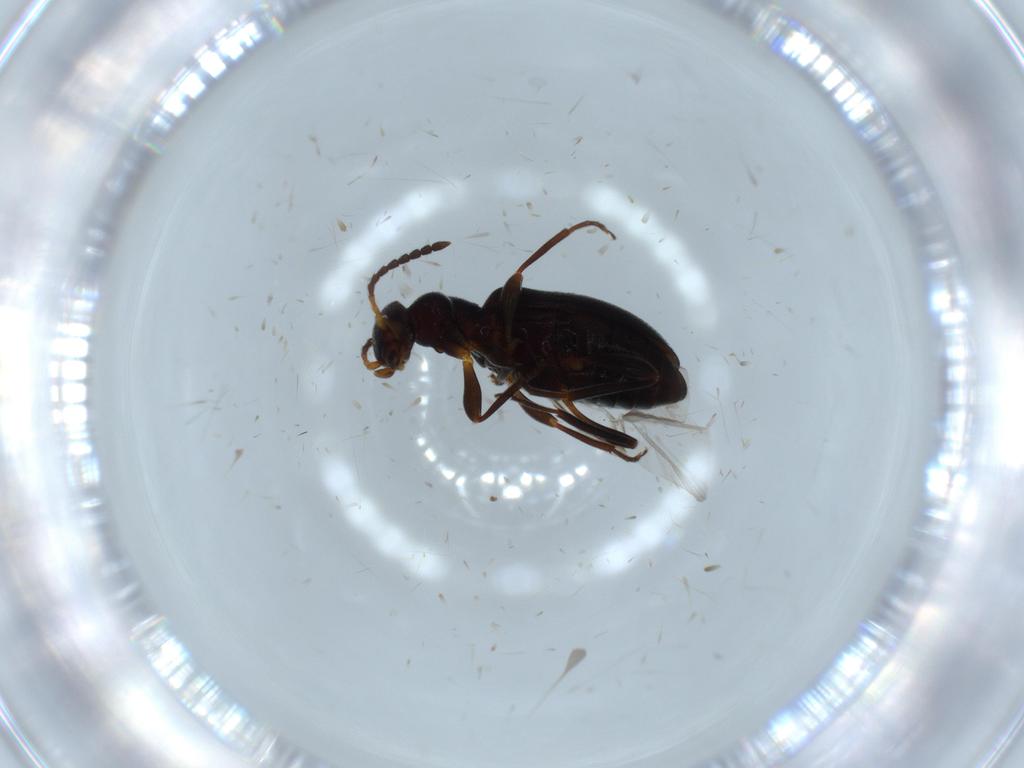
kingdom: Animalia
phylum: Arthropoda
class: Insecta
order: Coleoptera
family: Anthicidae
